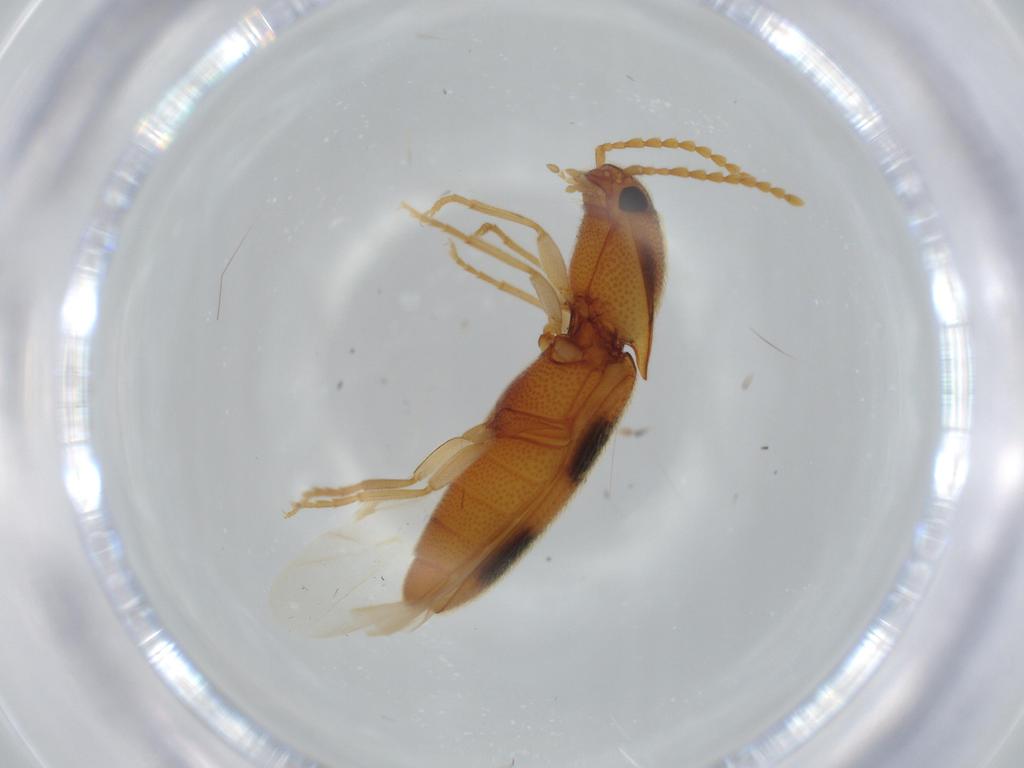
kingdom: Animalia
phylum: Arthropoda
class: Insecta
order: Coleoptera
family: Elateridae
